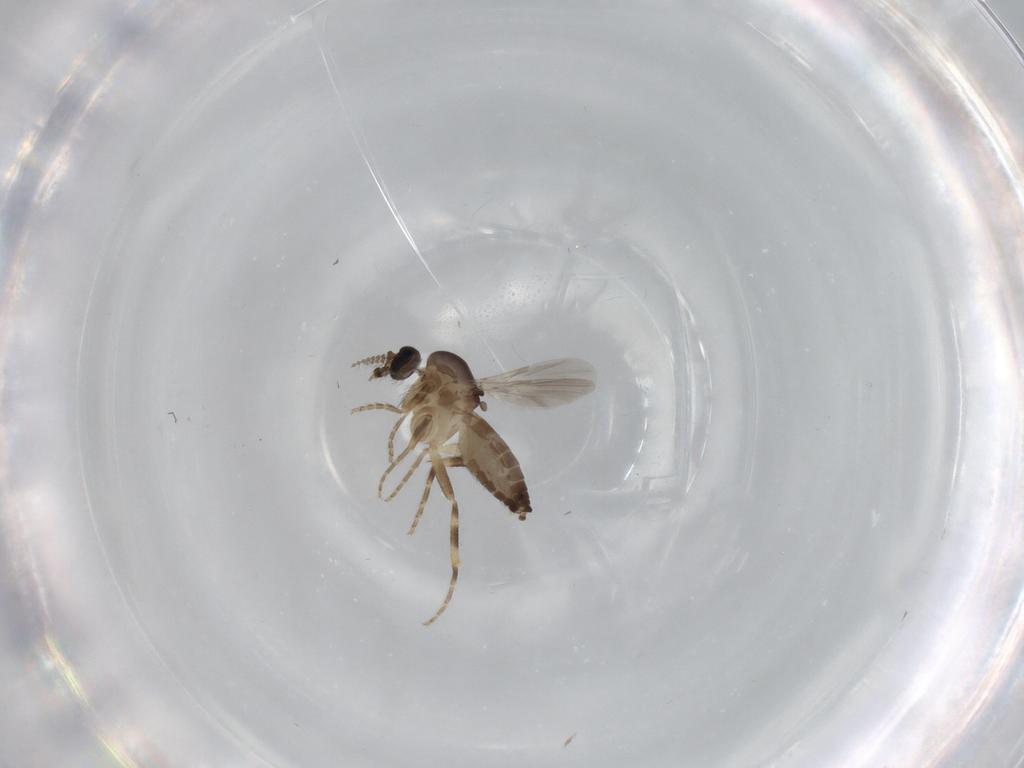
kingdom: Animalia
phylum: Arthropoda
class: Insecta
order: Diptera
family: Ceratopogonidae
